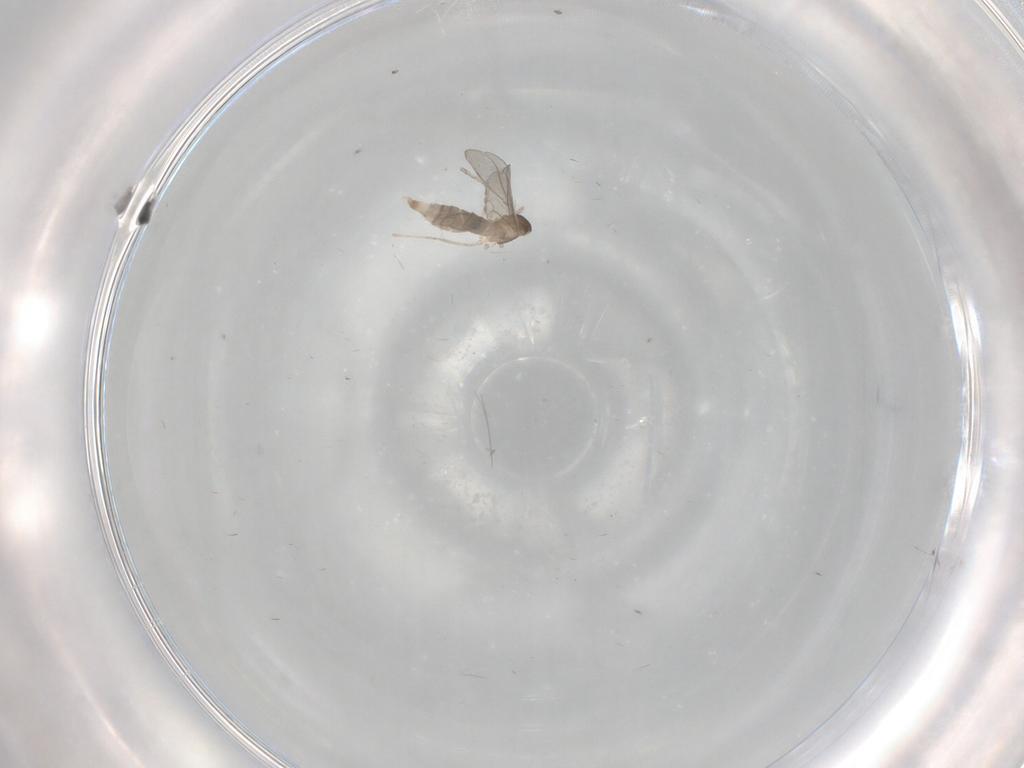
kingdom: Animalia
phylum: Arthropoda
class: Insecta
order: Diptera
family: Cecidomyiidae
